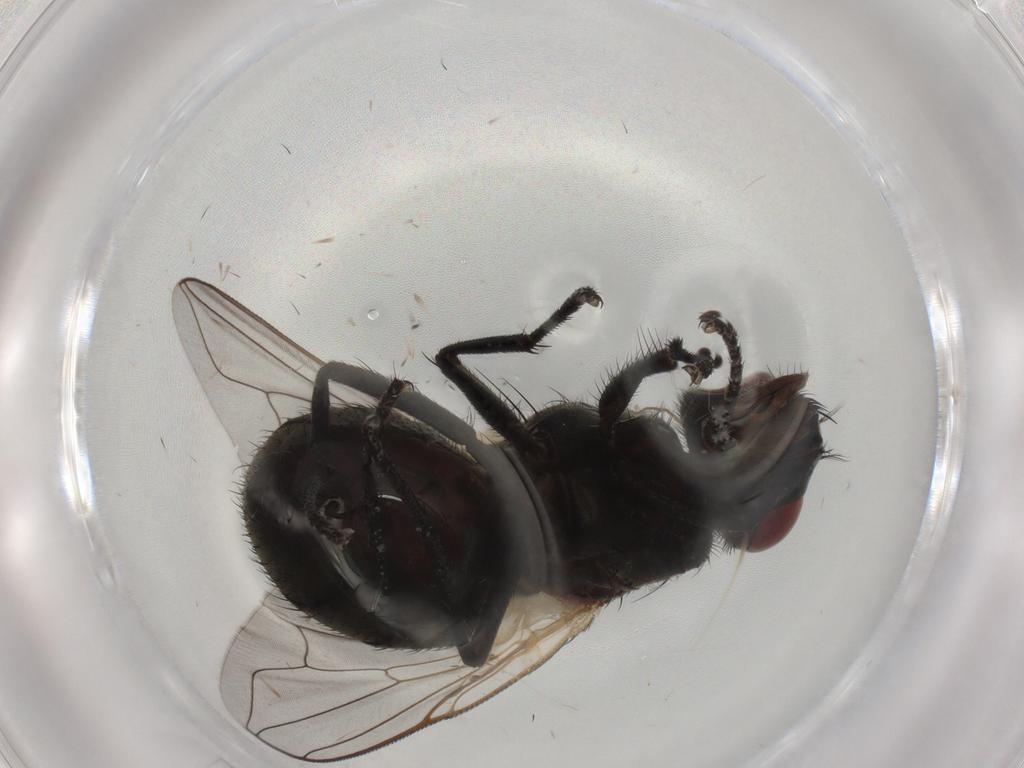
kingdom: Animalia
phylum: Arthropoda
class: Insecta
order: Diptera
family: Muscidae
